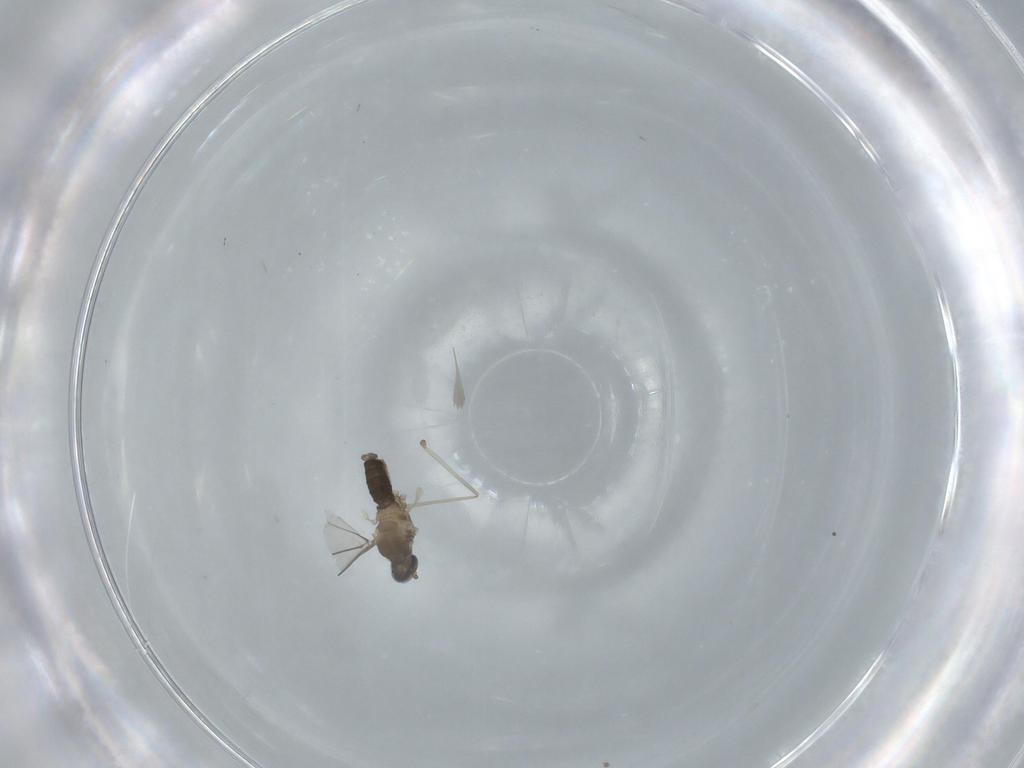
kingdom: Animalia
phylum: Arthropoda
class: Insecta
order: Diptera
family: Cecidomyiidae
